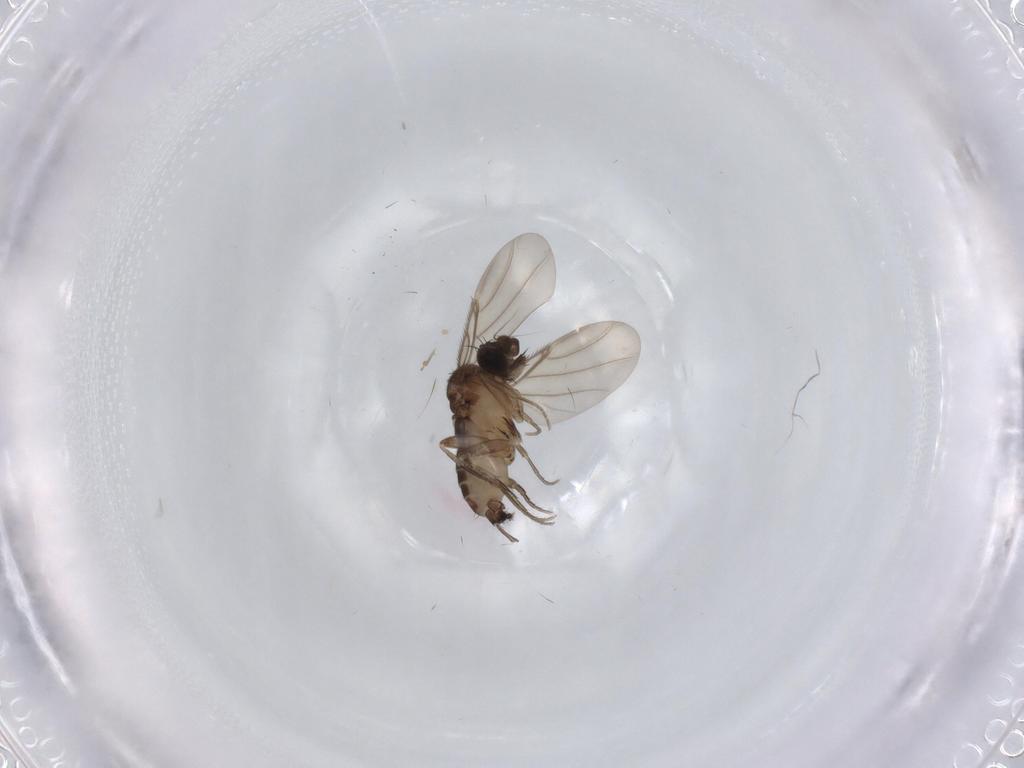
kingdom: Animalia
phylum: Arthropoda
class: Insecta
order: Diptera
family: Phoridae
